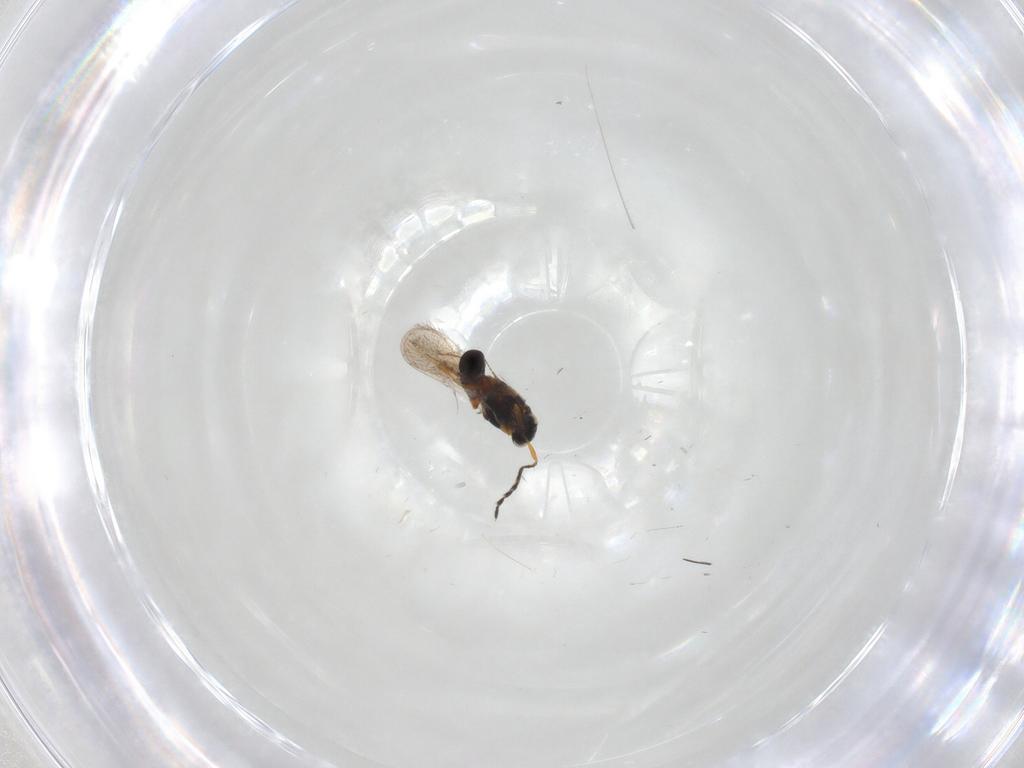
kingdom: Animalia
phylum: Arthropoda
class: Insecta
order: Hymenoptera
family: Platygastridae
